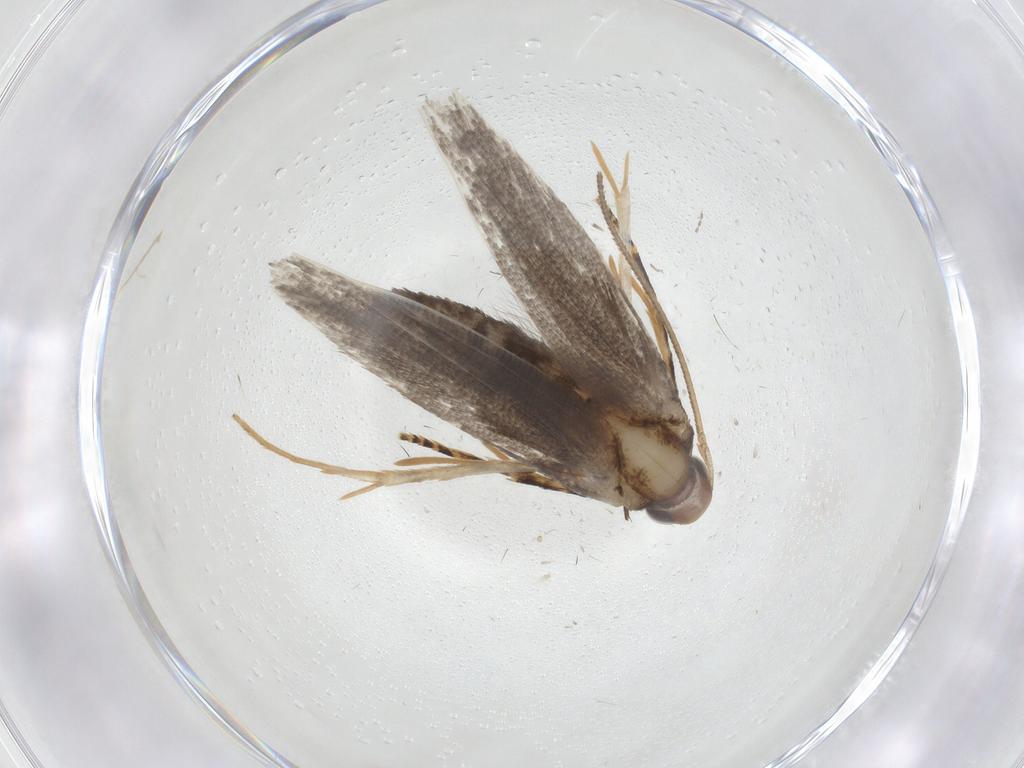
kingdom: Animalia
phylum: Arthropoda
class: Insecta
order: Lepidoptera
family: Oecophoridae
